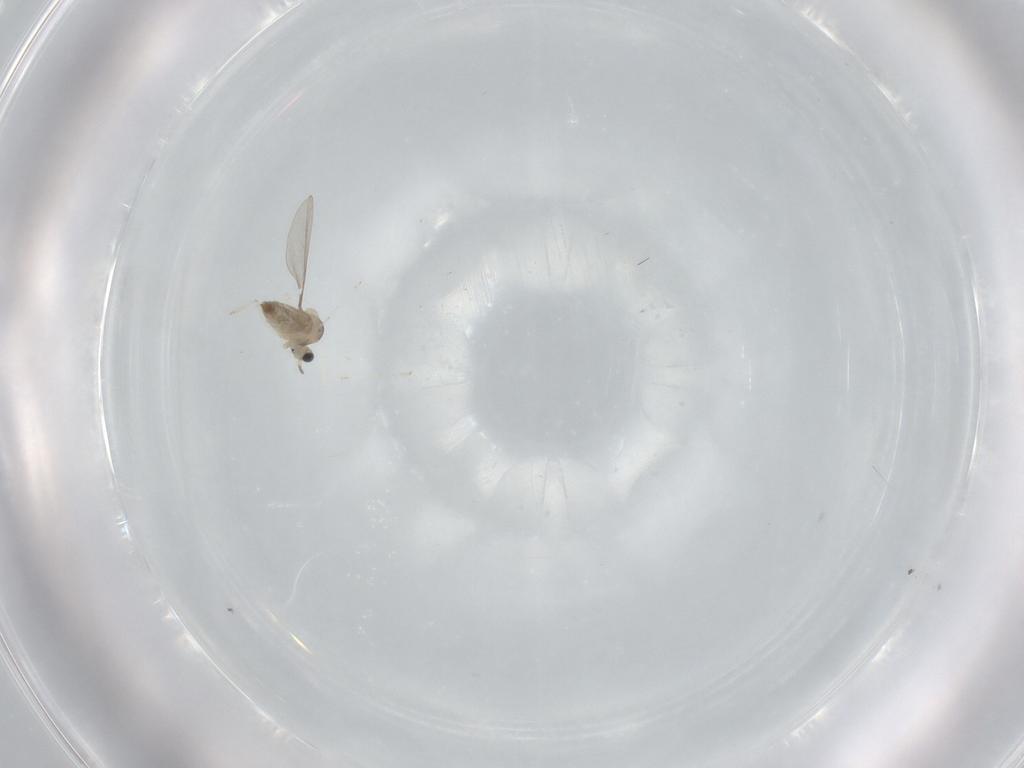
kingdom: Animalia
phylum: Arthropoda
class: Insecta
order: Diptera
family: Cecidomyiidae
